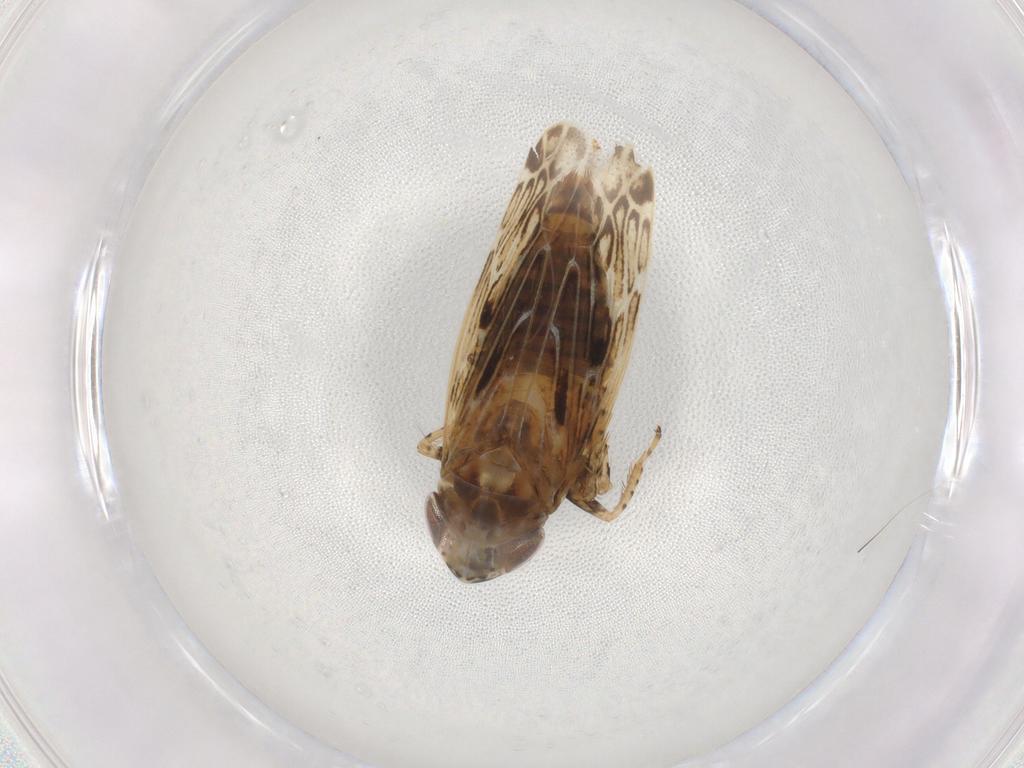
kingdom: Animalia
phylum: Arthropoda
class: Insecta
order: Hemiptera
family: Cicadellidae
